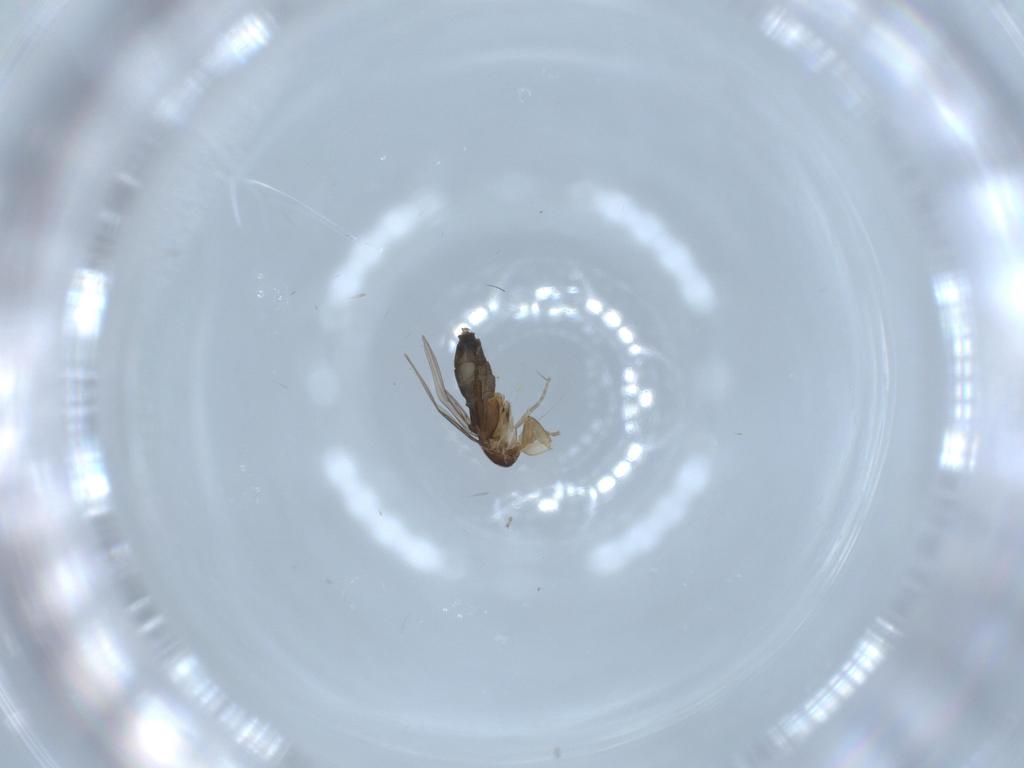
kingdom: Animalia
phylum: Arthropoda
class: Insecta
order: Diptera
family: Phoridae
